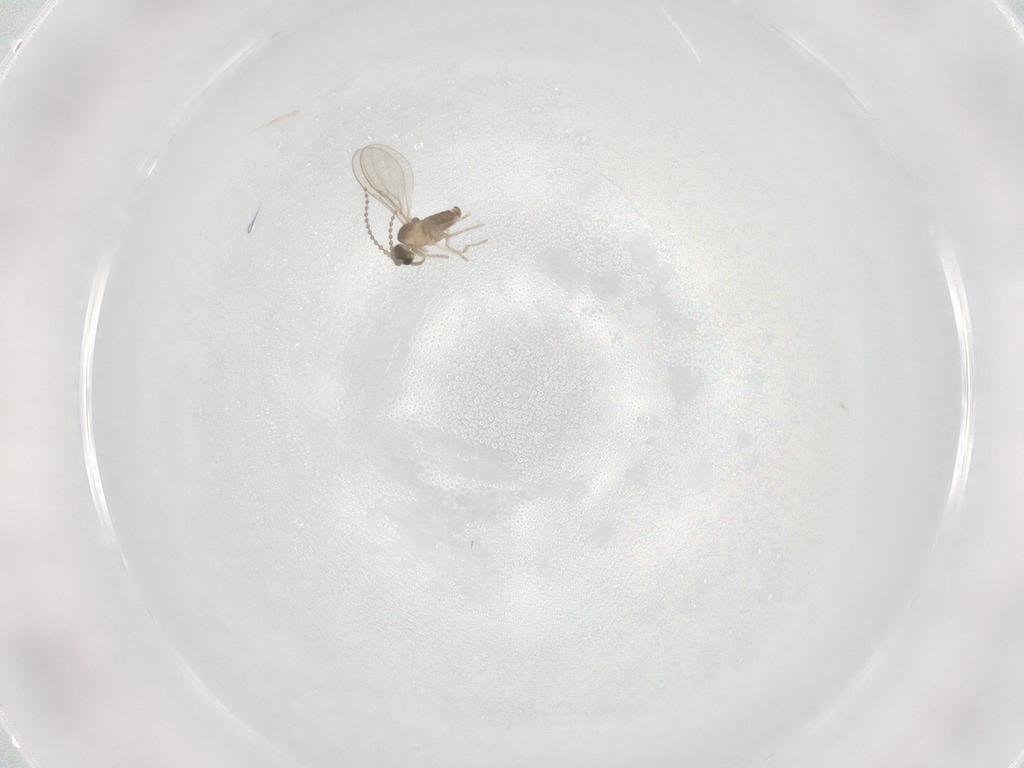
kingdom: Animalia
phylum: Arthropoda
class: Insecta
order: Diptera
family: Cecidomyiidae
